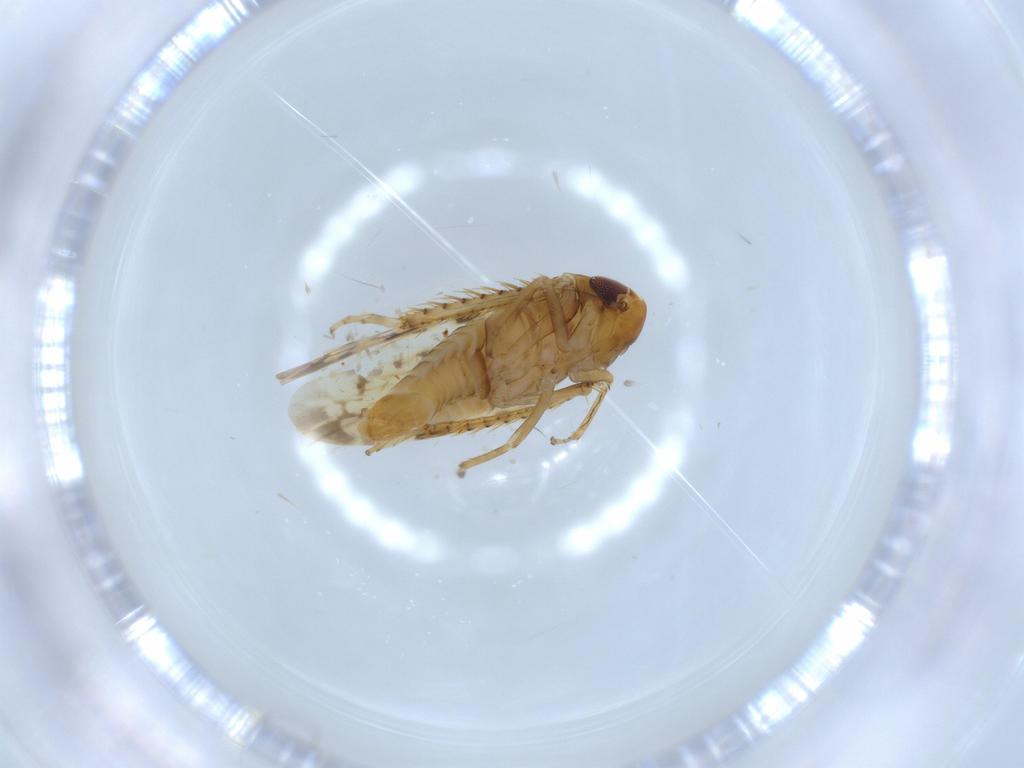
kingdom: Animalia
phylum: Arthropoda
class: Insecta
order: Hemiptera
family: Cicadellidae
